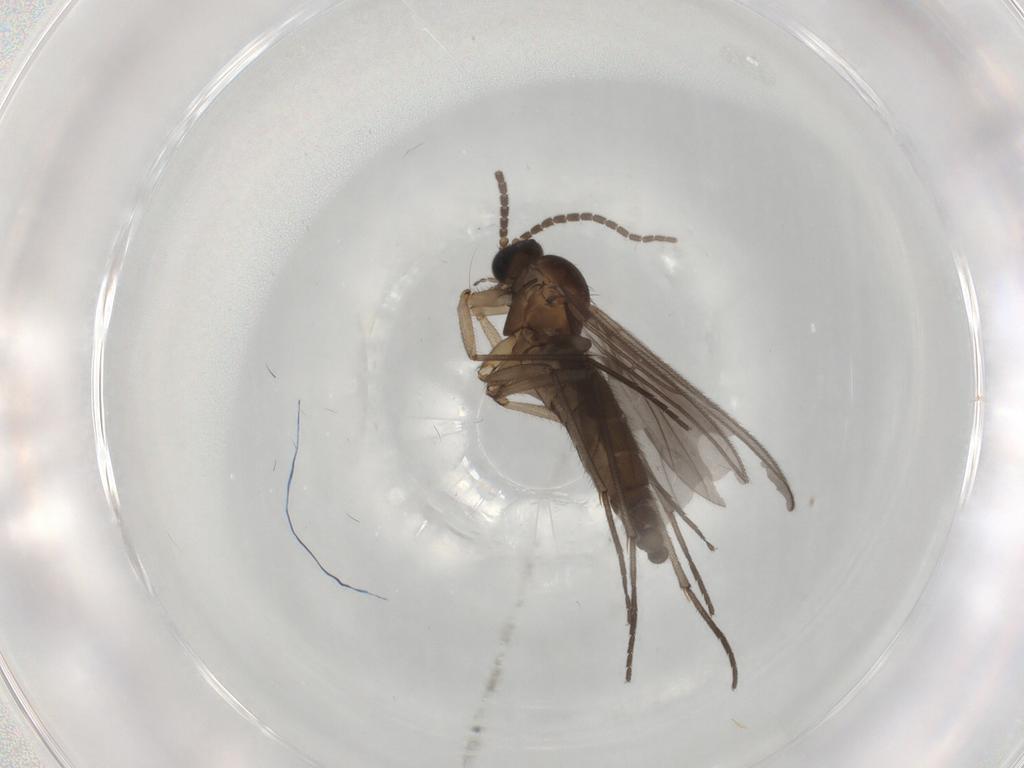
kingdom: Animalia
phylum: Arthropoda
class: Insecta
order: Diptera
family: Sciaridae
